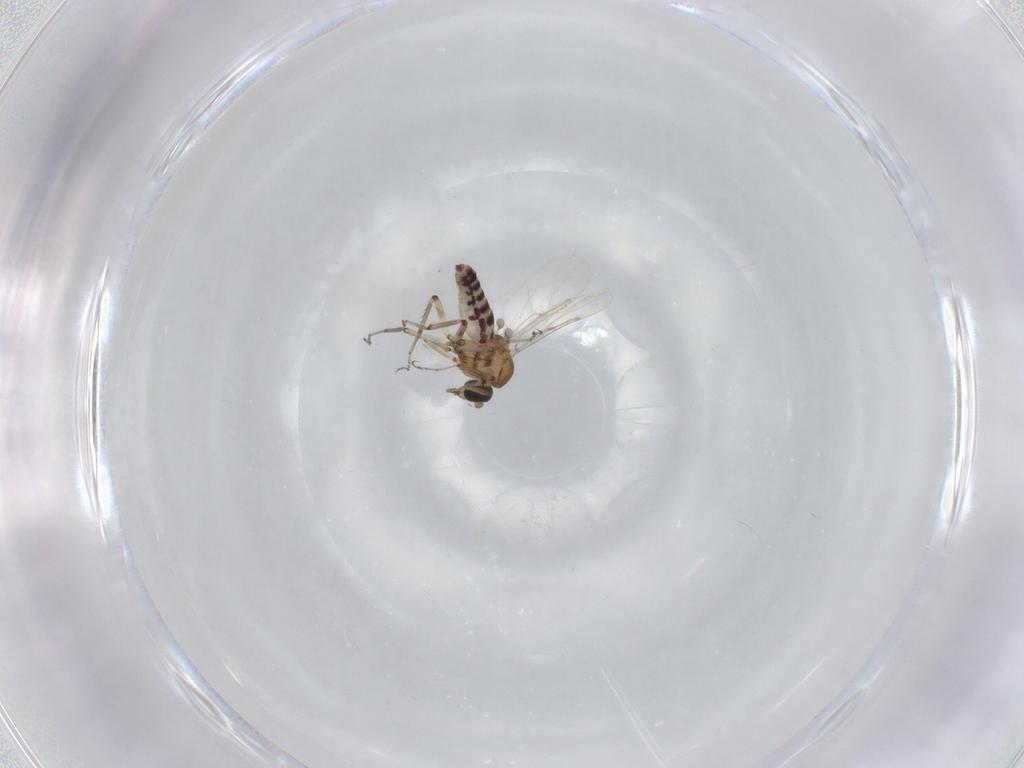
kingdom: Animalia
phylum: Arthropoda
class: Insecta
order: Diptera
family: Ceratopogonidae
